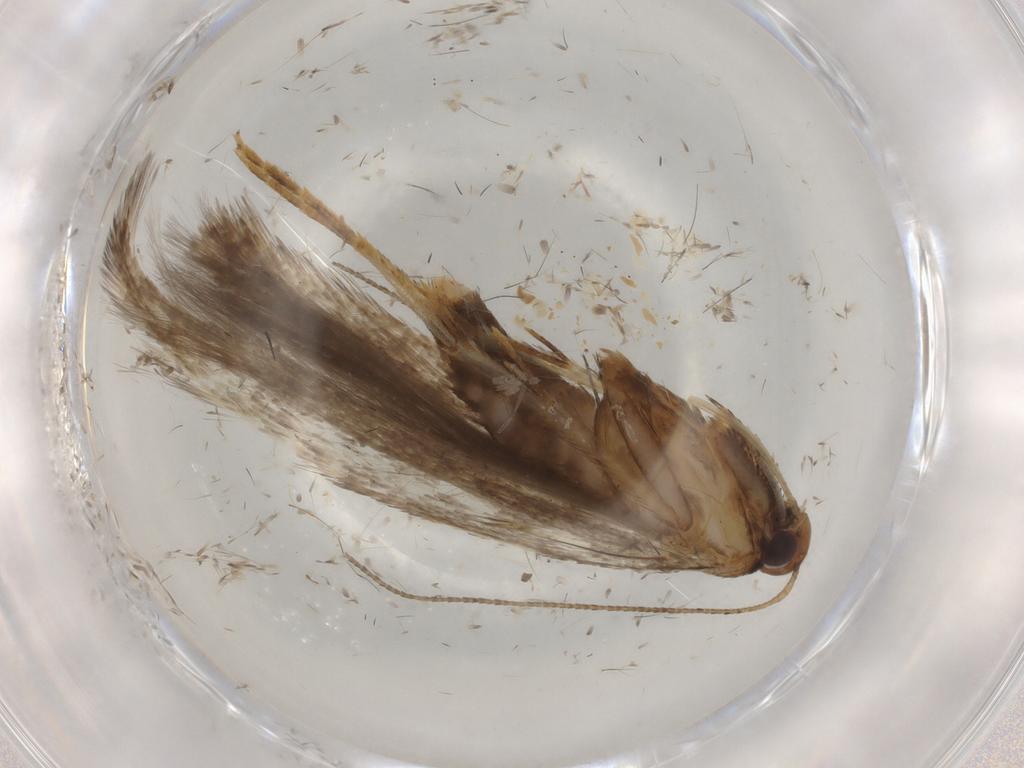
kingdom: Animalia
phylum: Arthropoda
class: Insecta
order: Lepidoptera
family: Gelechiidae
